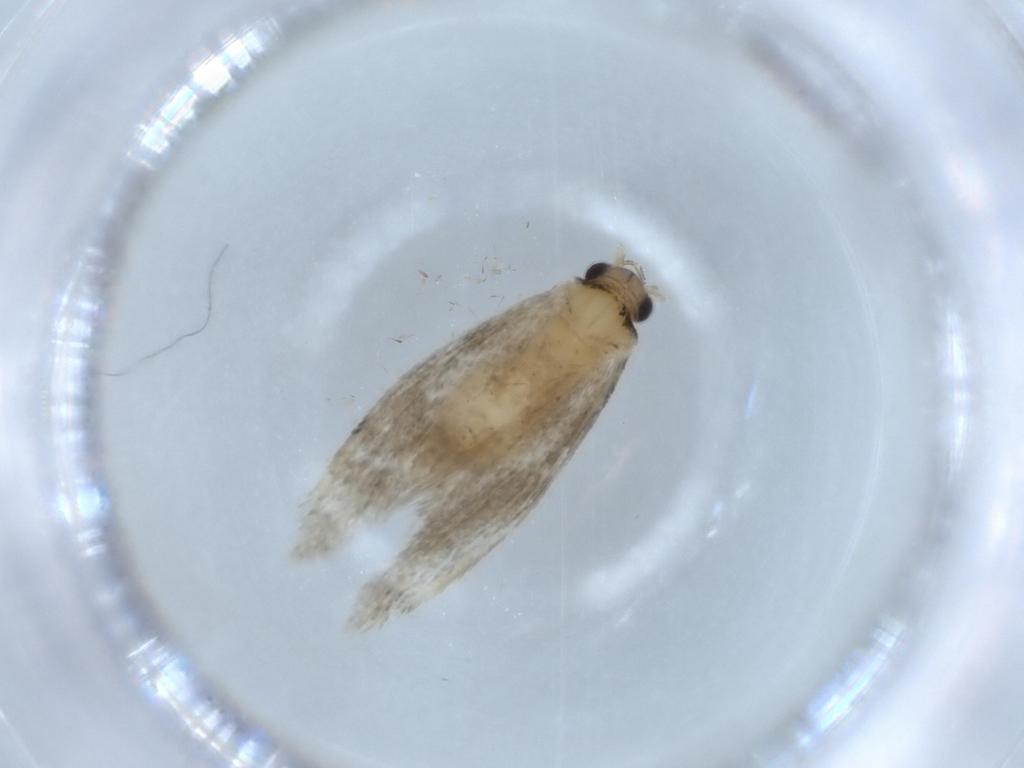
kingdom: Animalia
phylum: Arthropoda
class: Insecta
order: Lepidoptera
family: Tineidae
